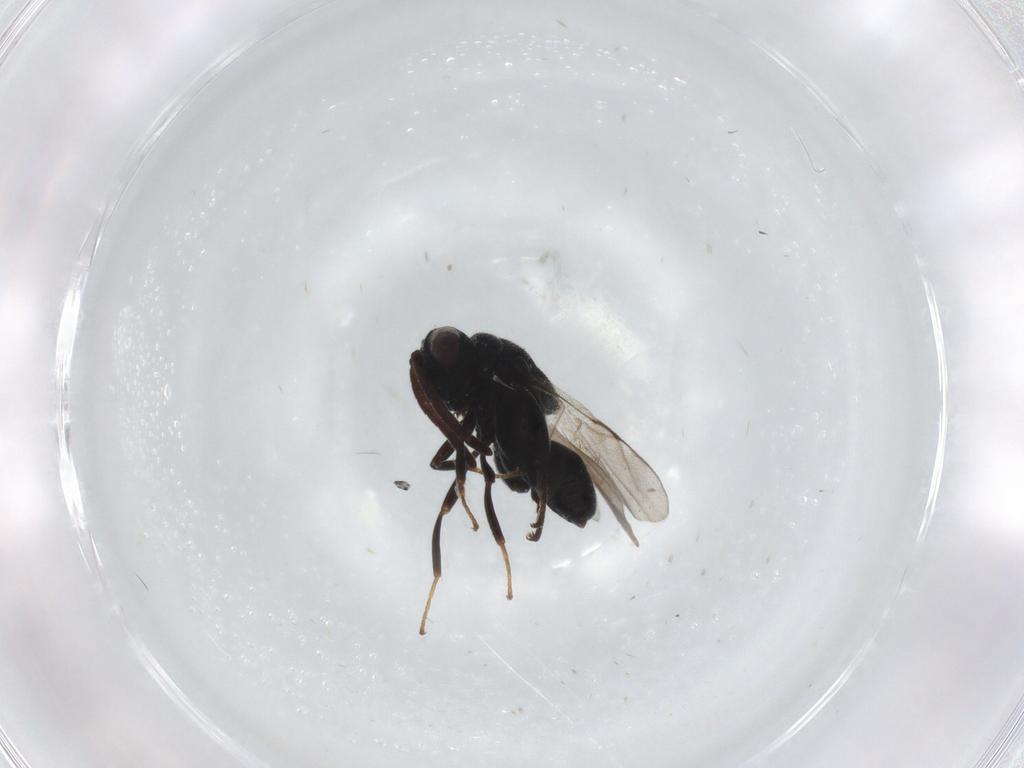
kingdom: Animalia
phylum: Arthropoda
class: Insecta
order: Hymenoptera
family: Chalcididae
